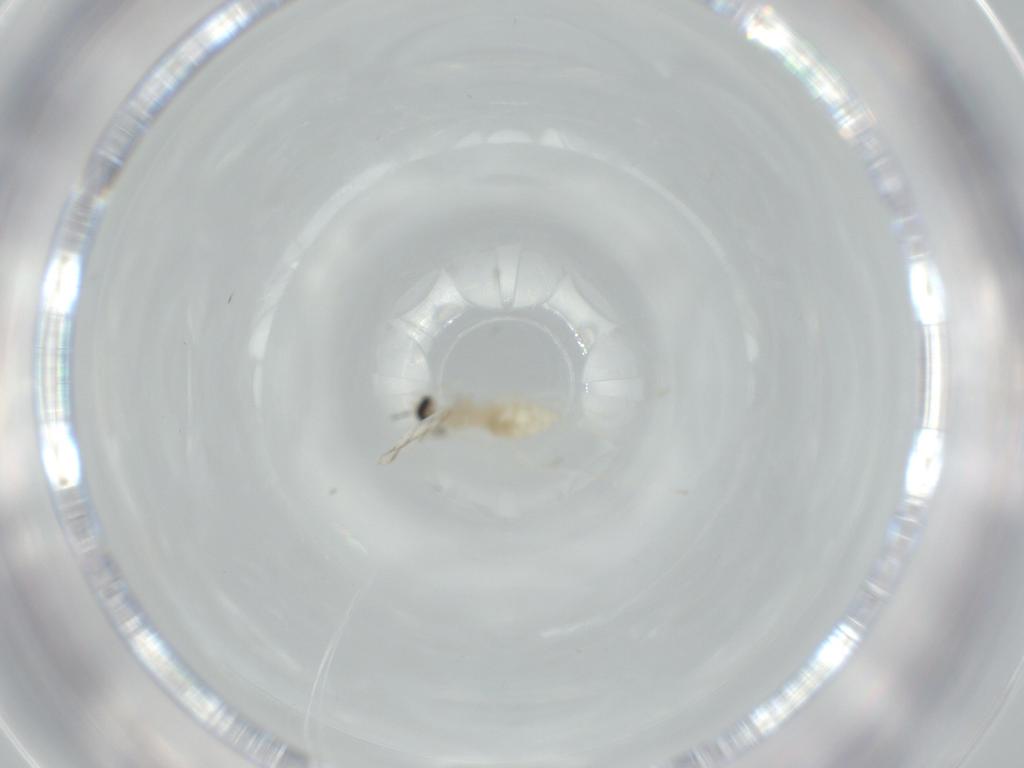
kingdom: Animalia
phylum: Arthropoda
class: Insecta
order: Diptera
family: Cecidomyiidae
